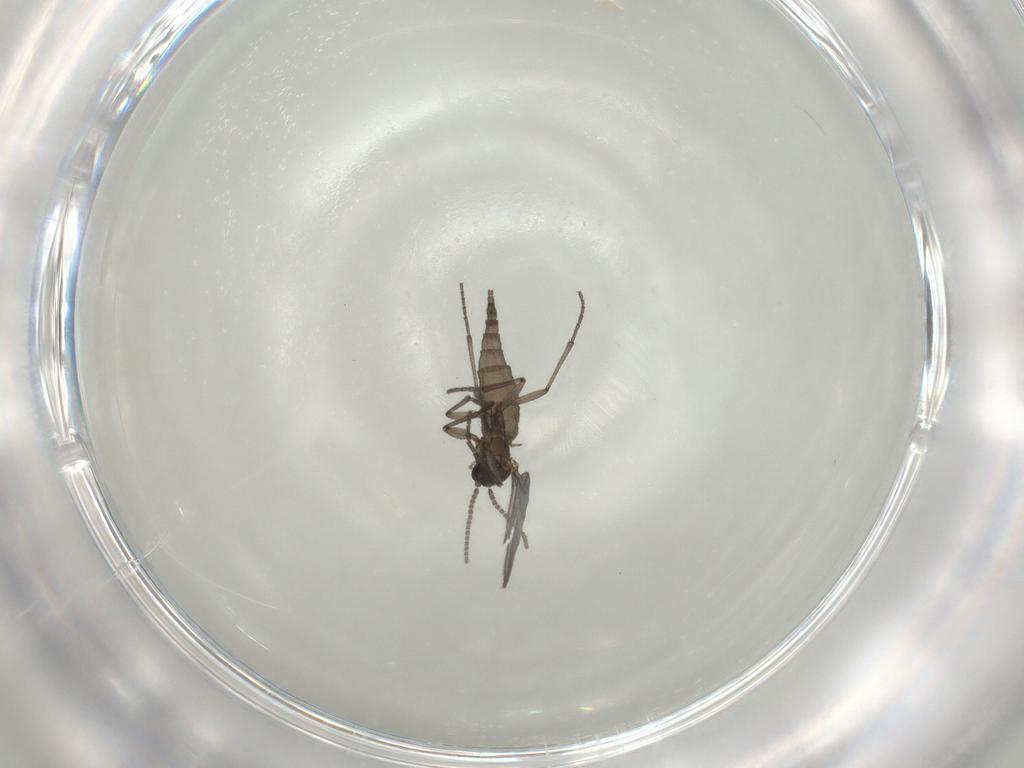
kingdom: Animalia
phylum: Arthropoda
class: Insecta
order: Diptera
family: Sciaridae
